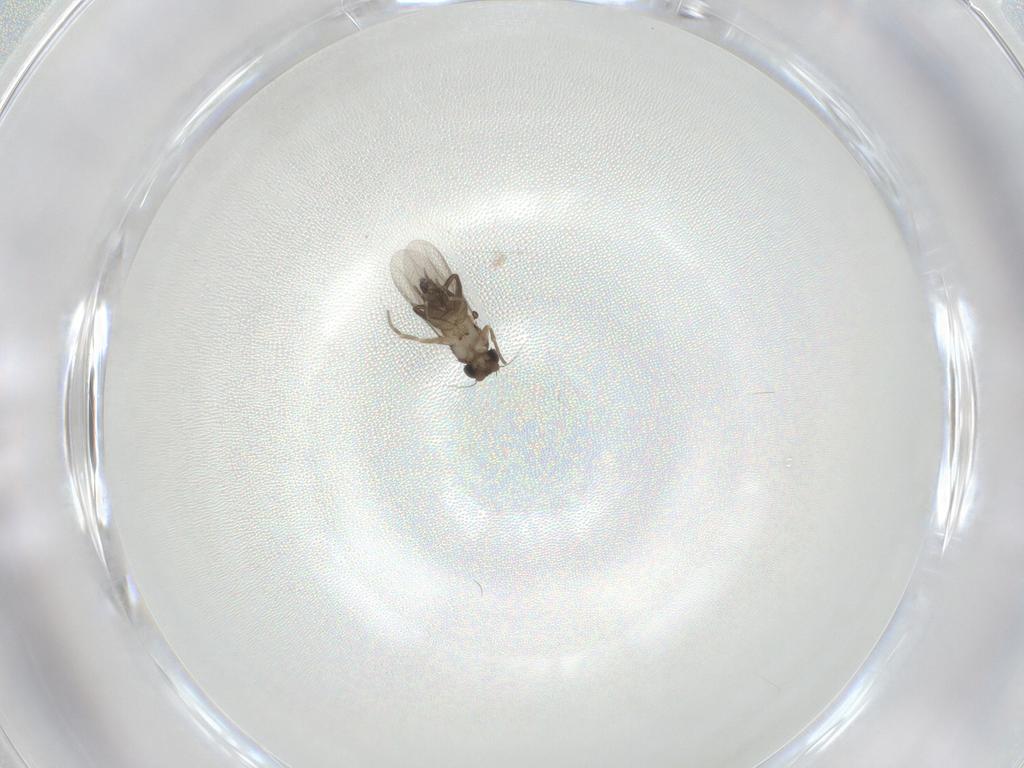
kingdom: Animalia
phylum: Arthropoda
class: Insecta
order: Diptera
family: Phoridae
